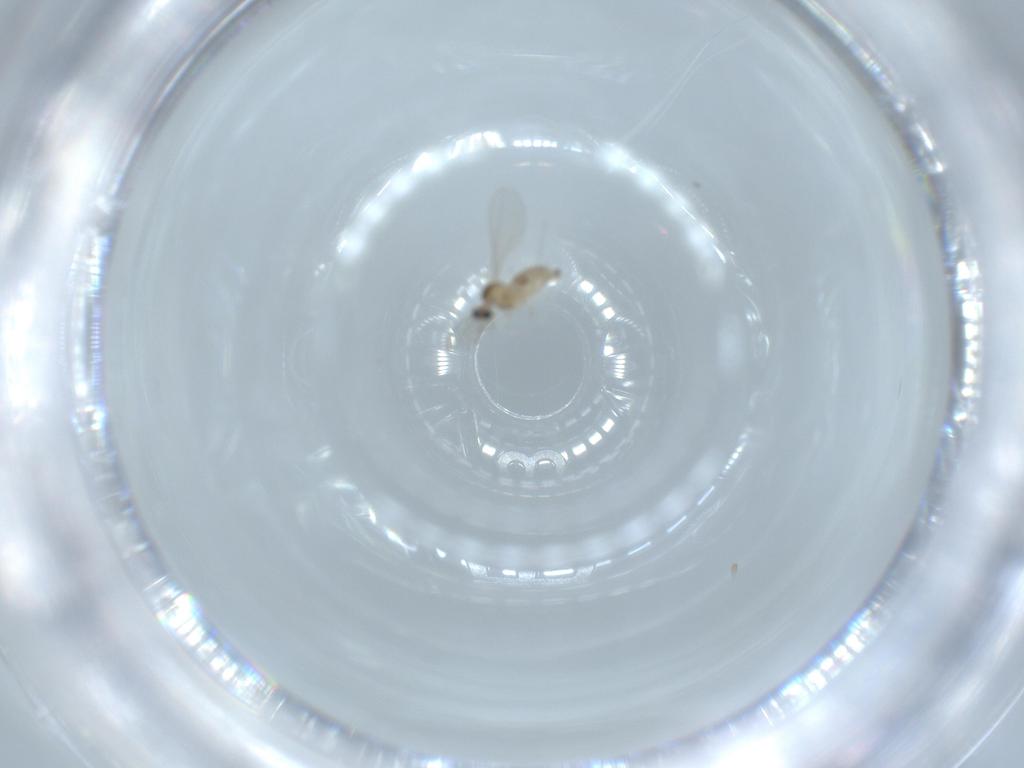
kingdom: Animalia
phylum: Arthropoda
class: Insecta
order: Diptera
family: Cecidomyiidae
